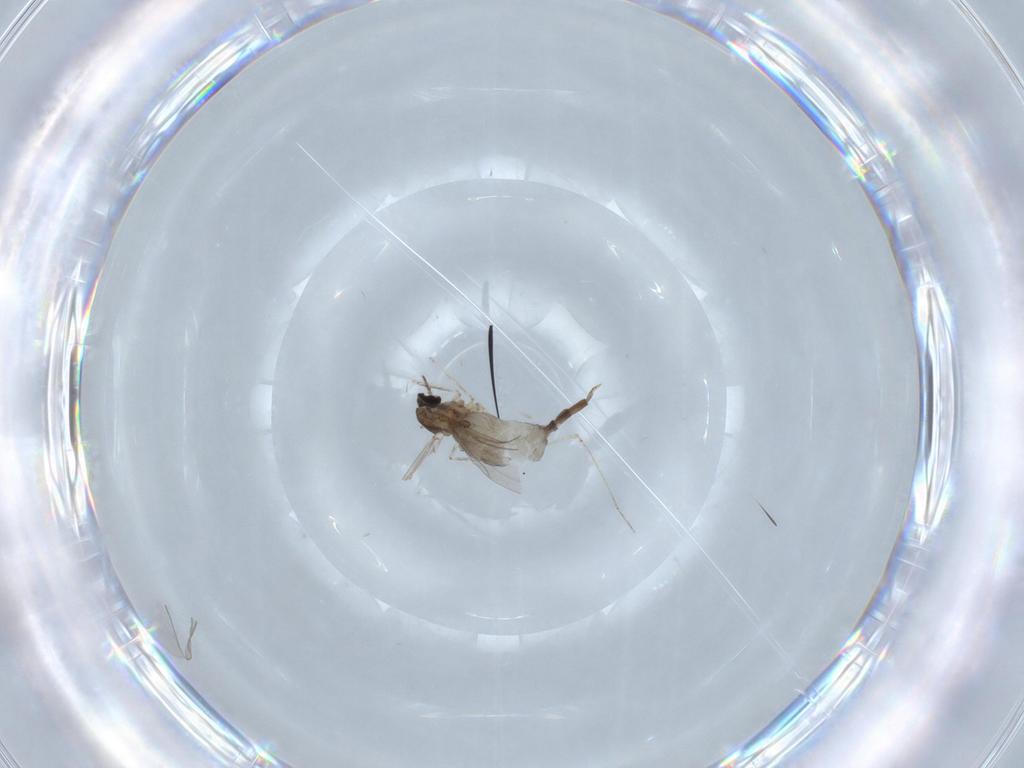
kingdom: Animalia
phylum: Arthropoda
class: Insecta
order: Diptera
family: Cecidomyiidae
